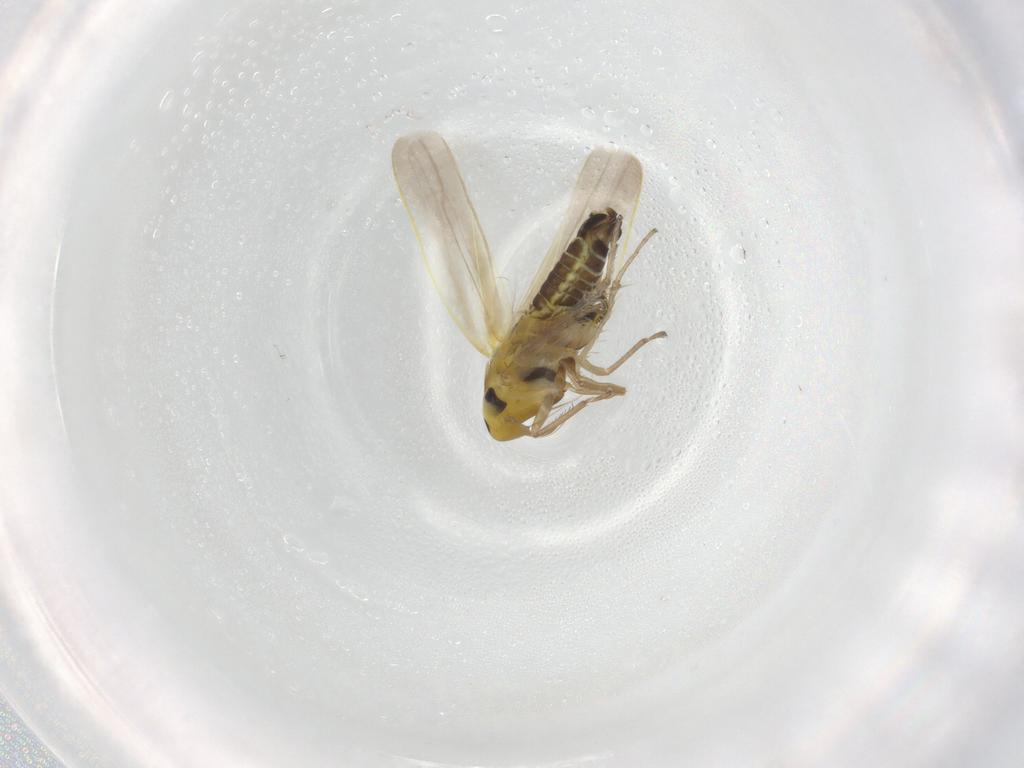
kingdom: Animalia
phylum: Arthropoda
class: Insecta
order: Hemiptera
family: Cicadellidae
